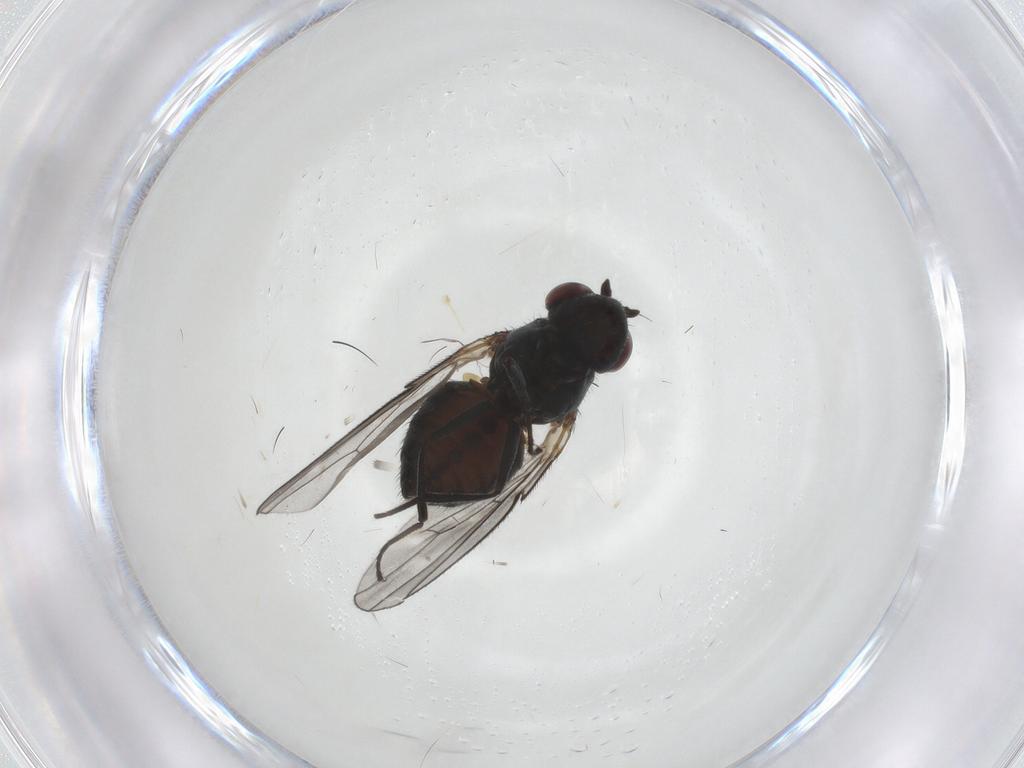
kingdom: Animalia
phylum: Arthropoda
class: Insecta
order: Diptera
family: Ephydridae
